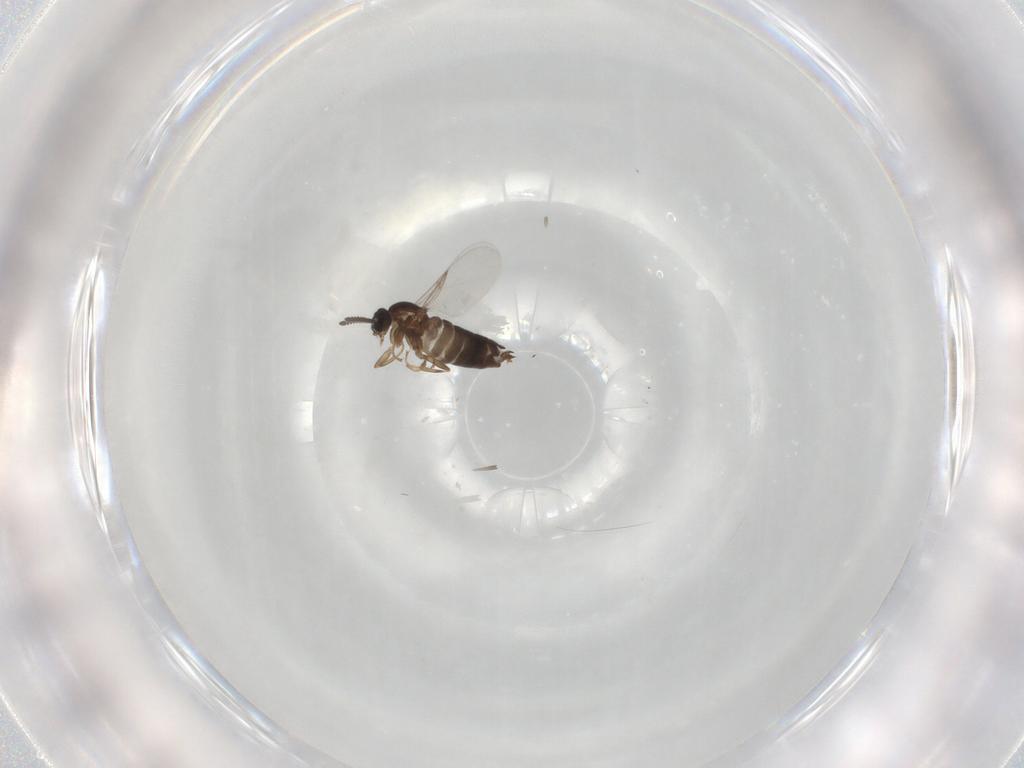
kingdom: Animalia
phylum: Arthropoda
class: Insecta
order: Diptera
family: Scatopsidae
